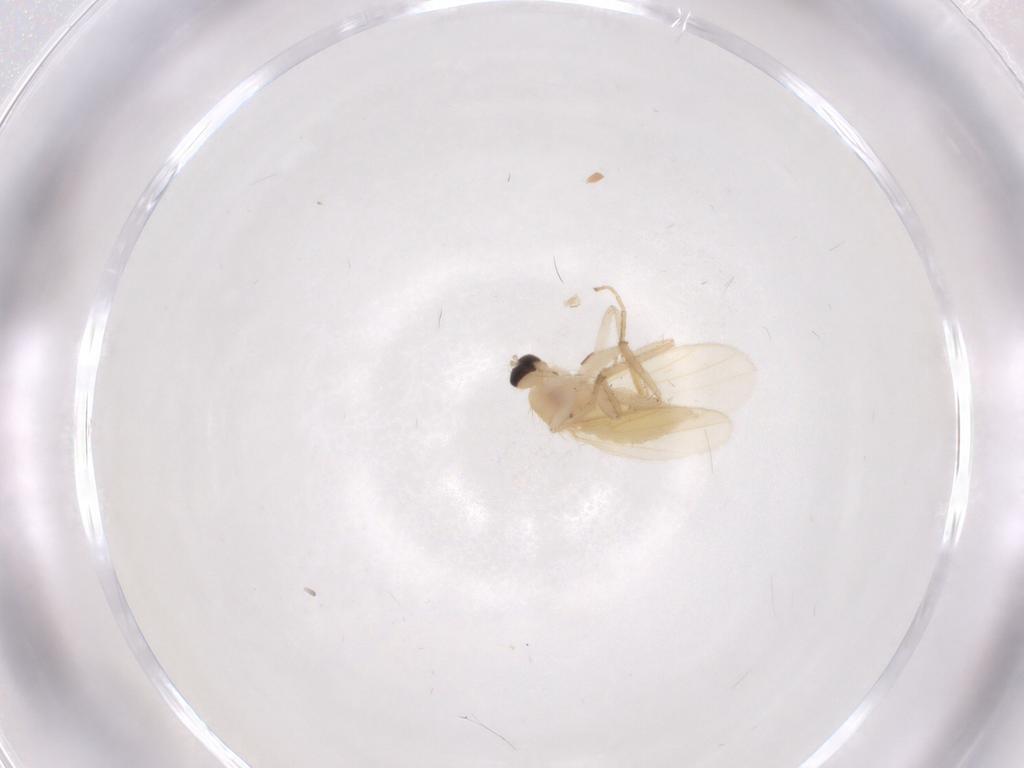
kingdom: Animalia
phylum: Arthropoda
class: Insecta
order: Diptera
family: Hybotidae
